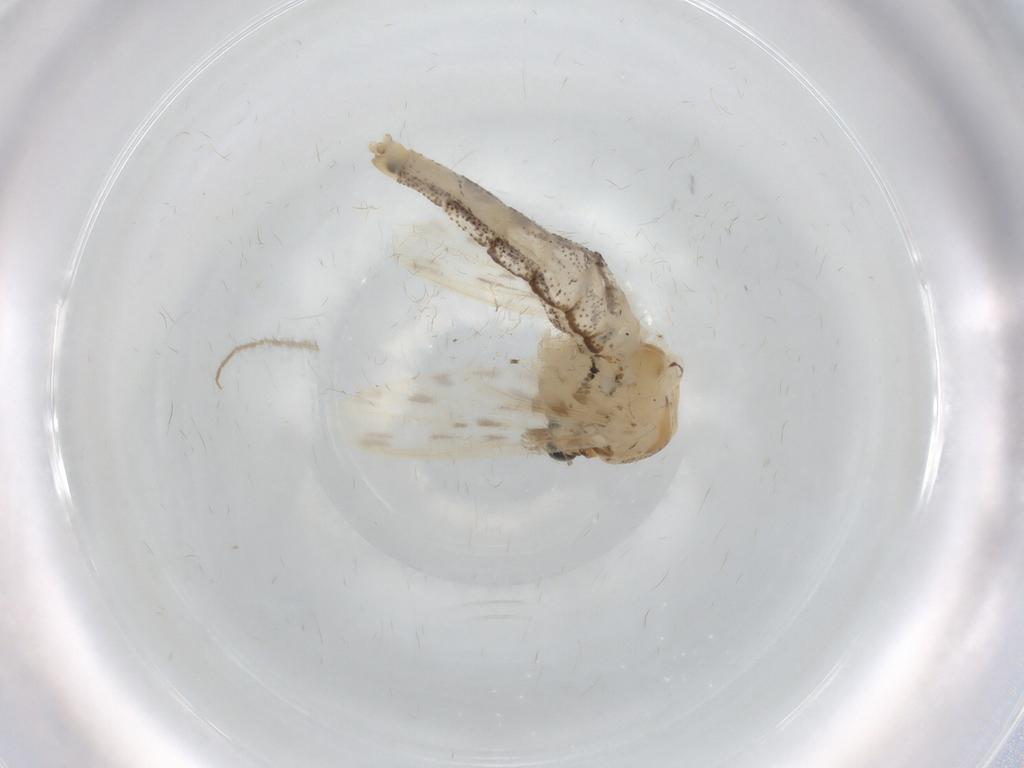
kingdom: Animalia
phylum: Arthropoda
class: Insecta
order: Diptera
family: Chaoboridae
